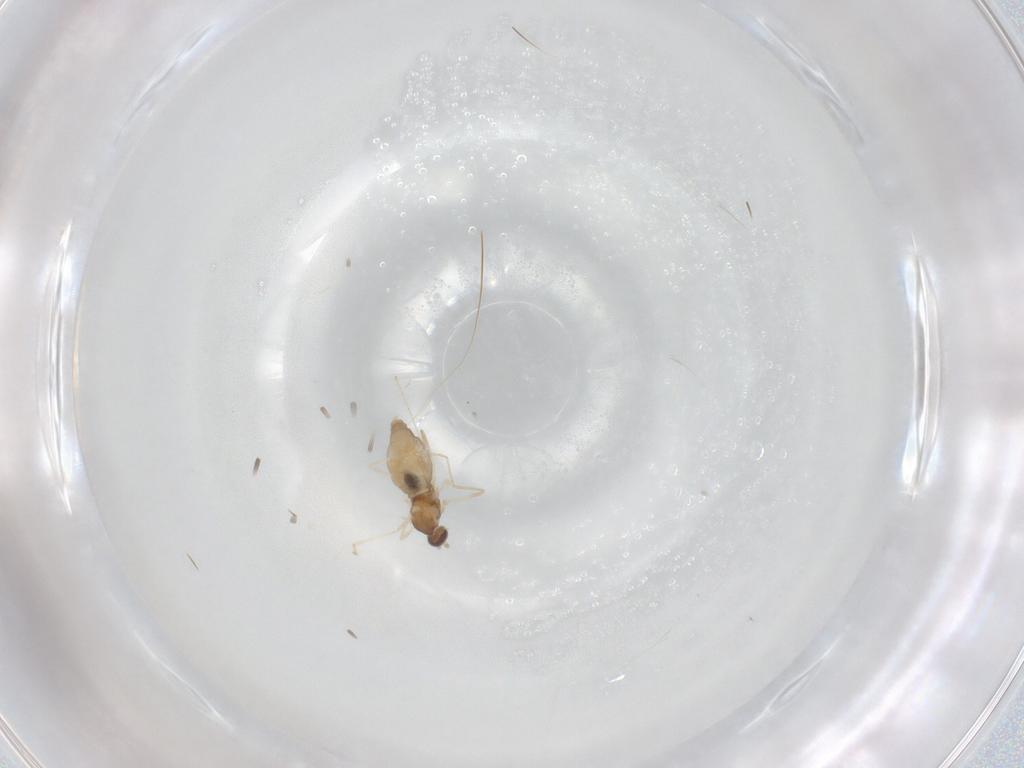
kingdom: Animalia
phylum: Arthropoda
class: Insecta
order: Diptera
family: Cecidomyiidae
